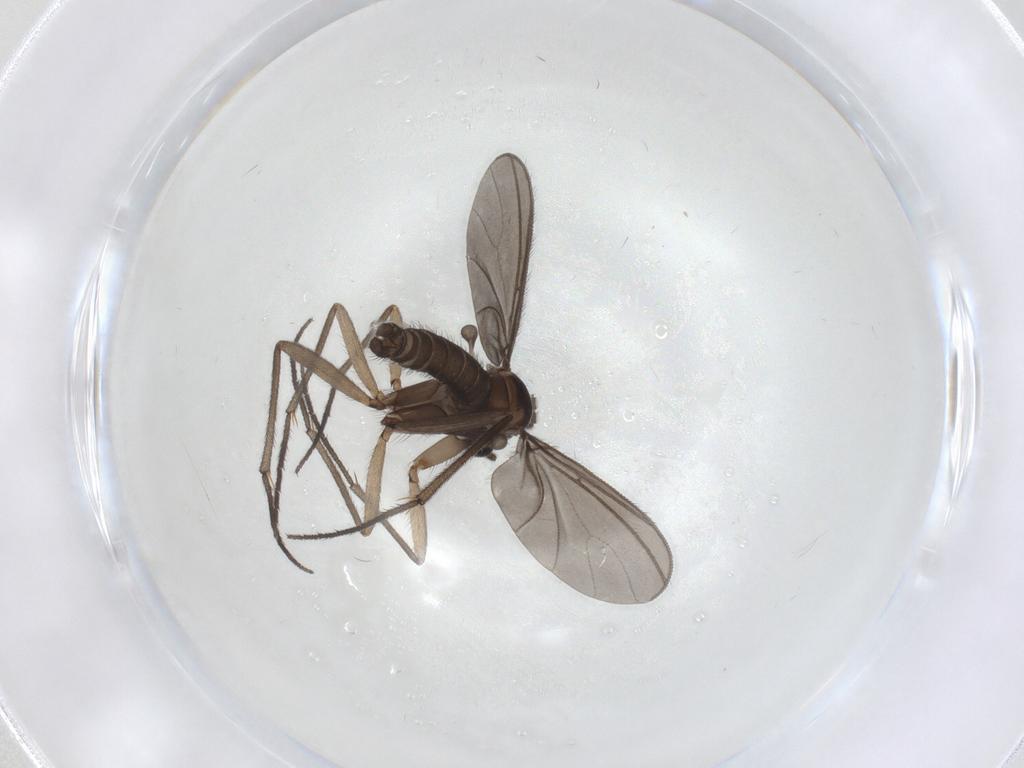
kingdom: Animalia
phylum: Arthropoda
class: Insecta
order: Diptera
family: Sciaridae
